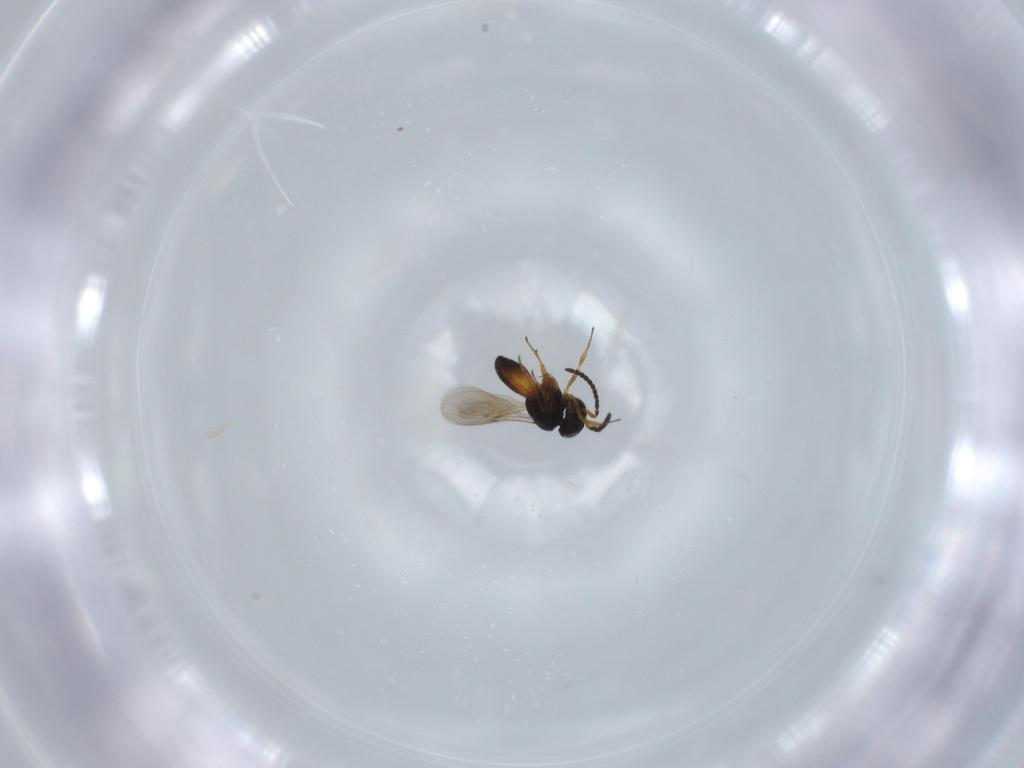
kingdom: Animalia
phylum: Arthropoda
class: Insecta
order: Hymenoptera
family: Scelionidae
